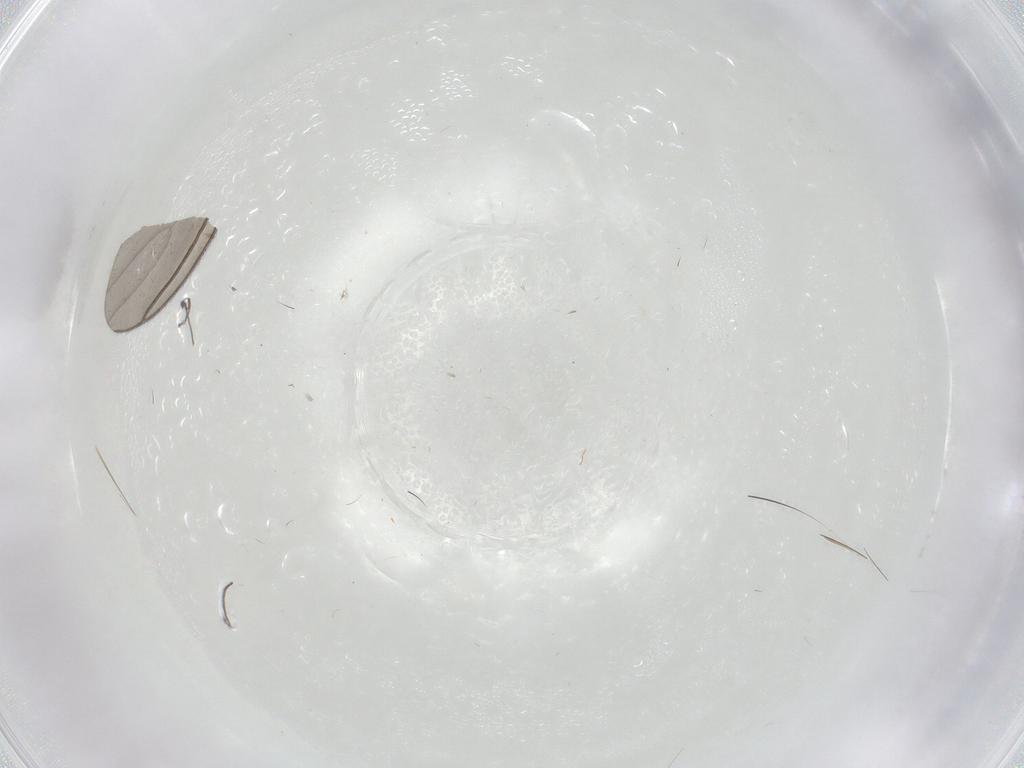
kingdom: Animalia
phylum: Arthropoda
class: Insecta
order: Diptera
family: Sciaridae
